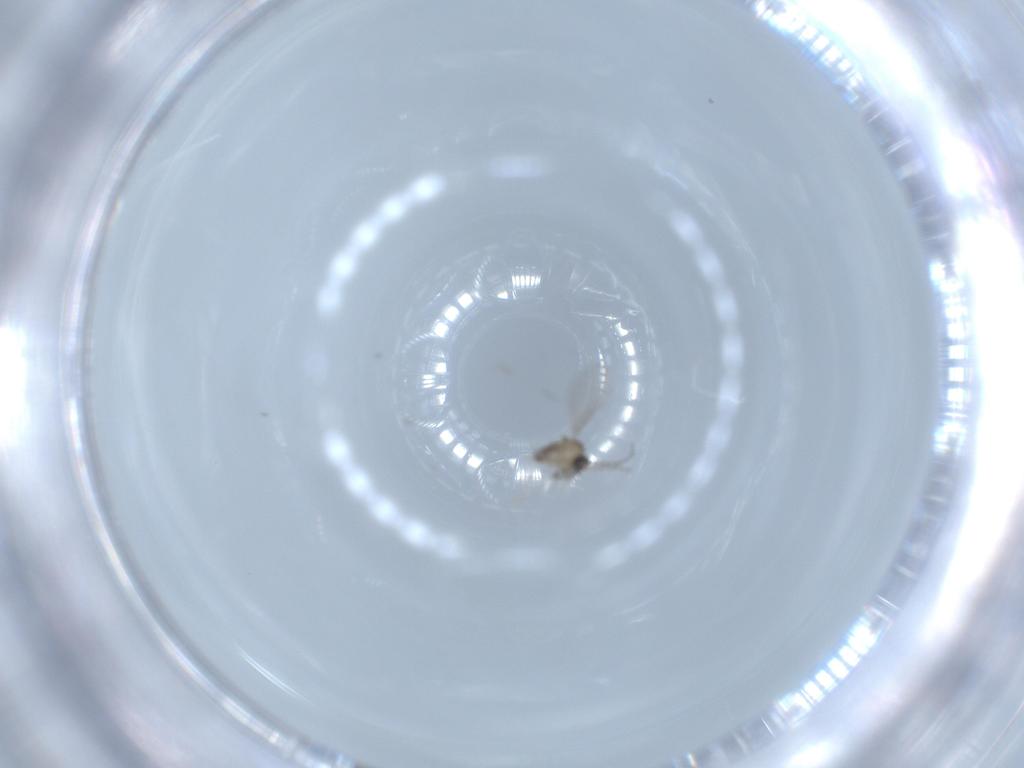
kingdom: Animalia
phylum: Arthropoda
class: Insecta
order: Diptera
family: Cecidomyiidae
